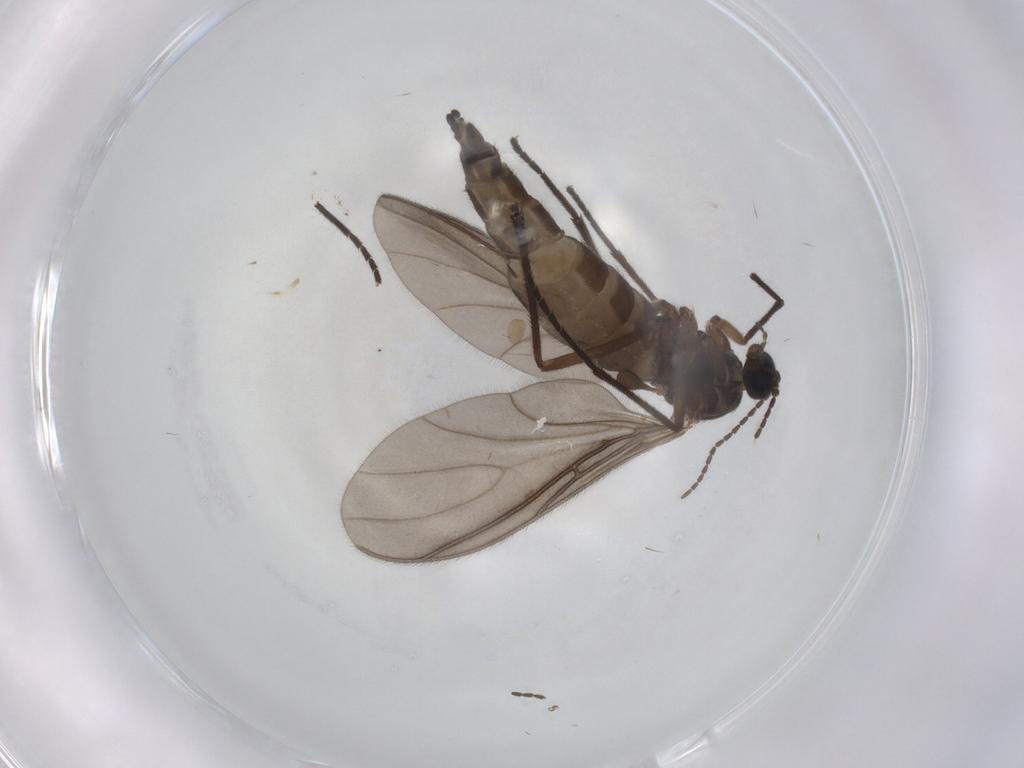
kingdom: Animalia
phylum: Arthropoda
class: Insecta
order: Diptera
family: Sciaridae
